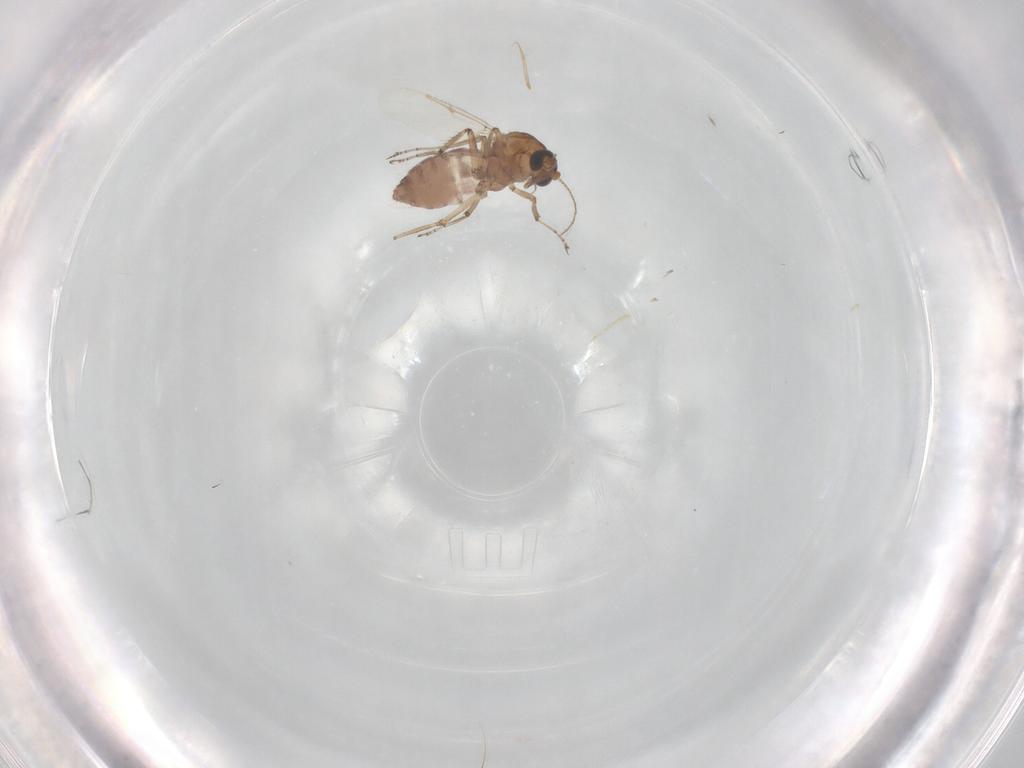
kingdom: Animalia
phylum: Arthropoda
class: Insecta
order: Diptera
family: Ceratopogonidae
